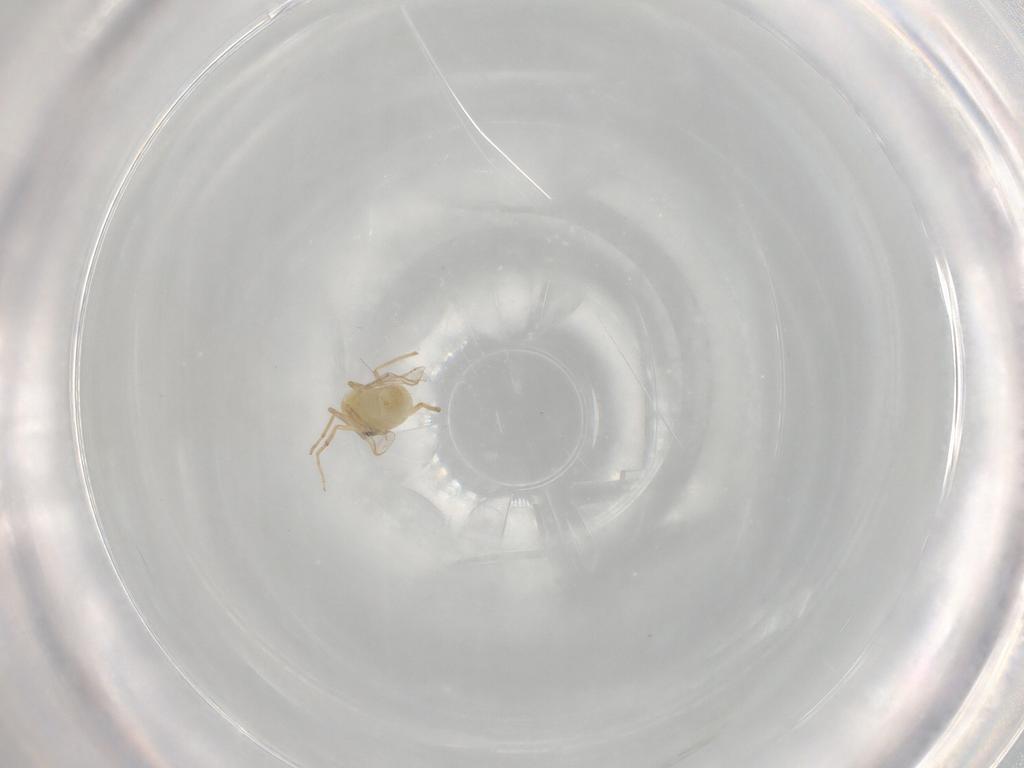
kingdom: Animalia
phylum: Arthropoda
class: Insecta
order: Diptera
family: Chironomidae
